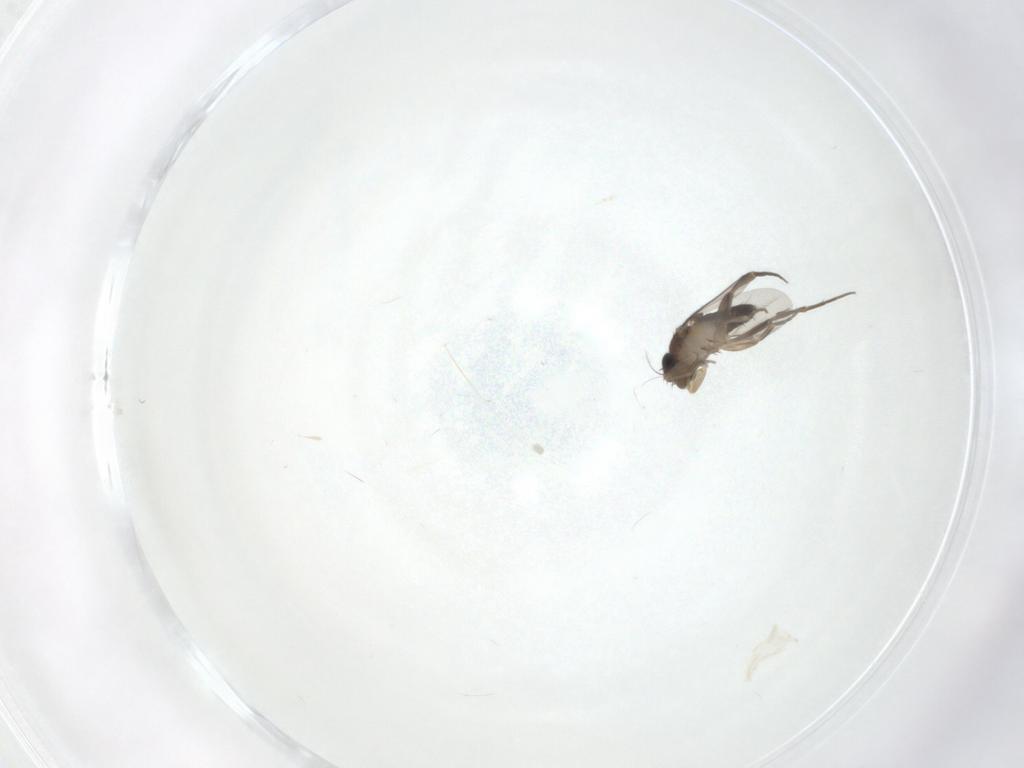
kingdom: Animalia
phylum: Arthropoda
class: Insecta
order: Diptera
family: Phoridae
